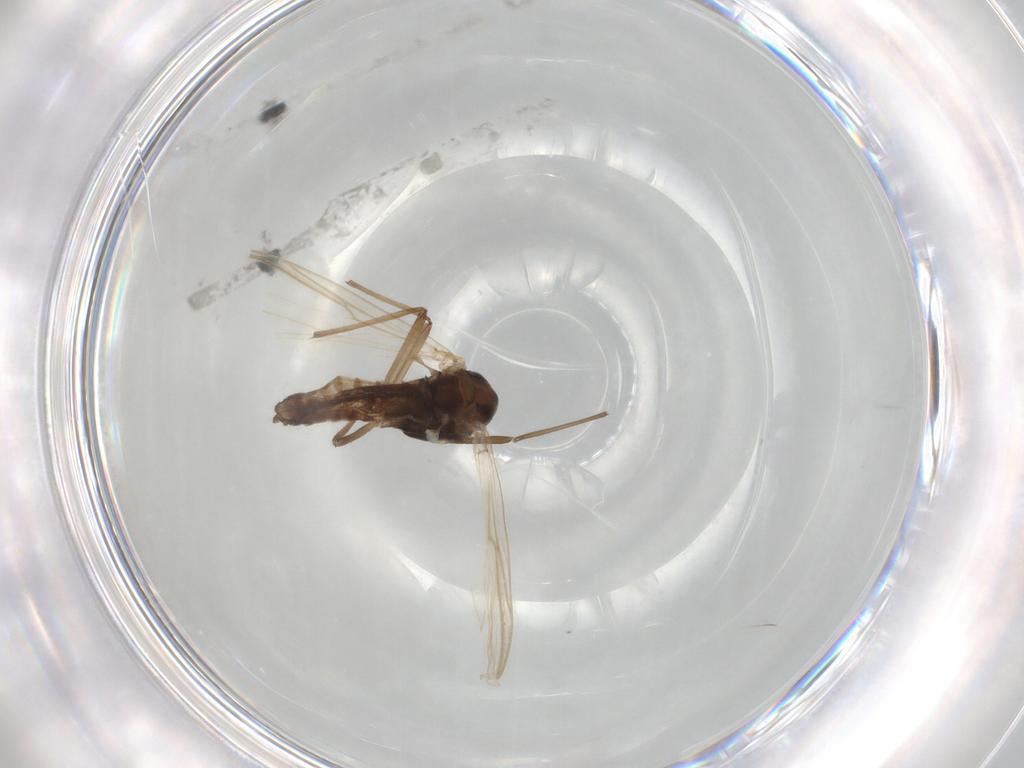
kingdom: Animalia
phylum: Arthropoda
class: Insecta
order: Diptera
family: Chironomidae
